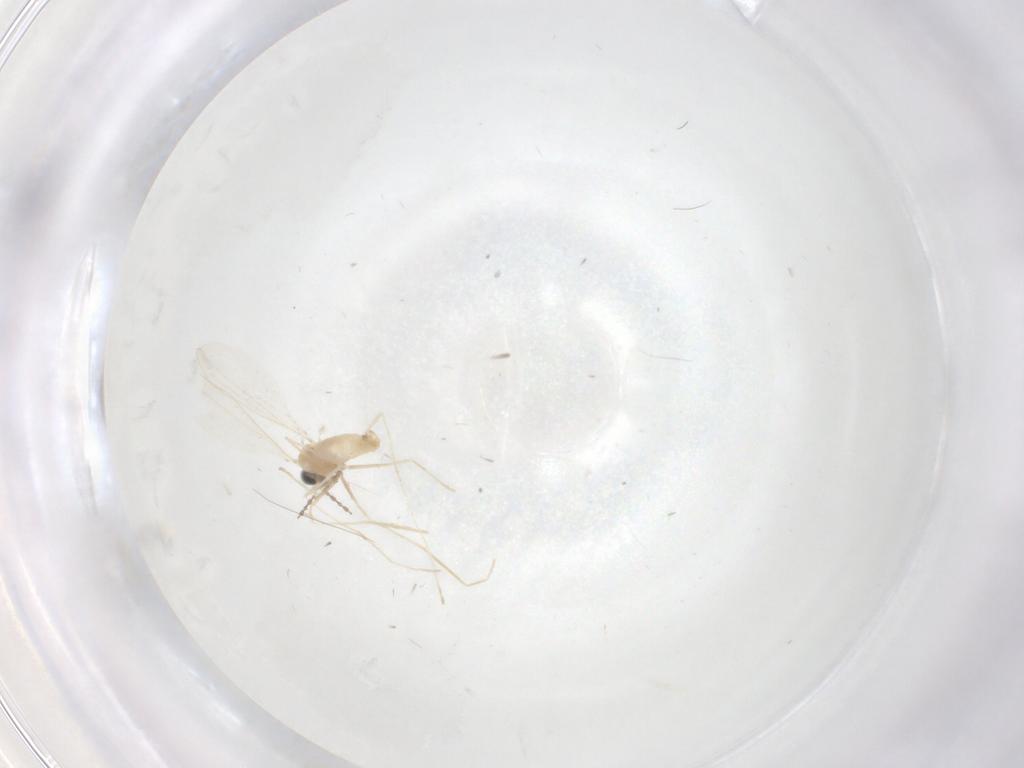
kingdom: Animalia
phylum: Arthropoda
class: Insecta
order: Diptera
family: Cecidomyiidae
